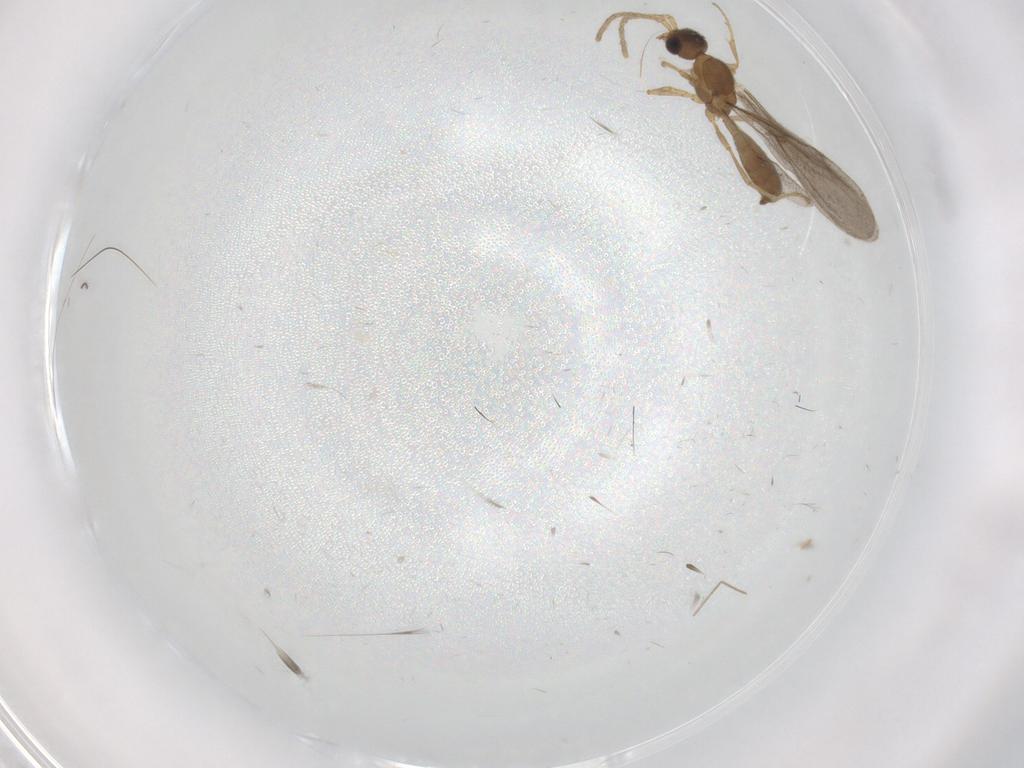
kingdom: Animalia
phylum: Arthropoda
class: Insecta
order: Hymenoptera
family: Formicidae
